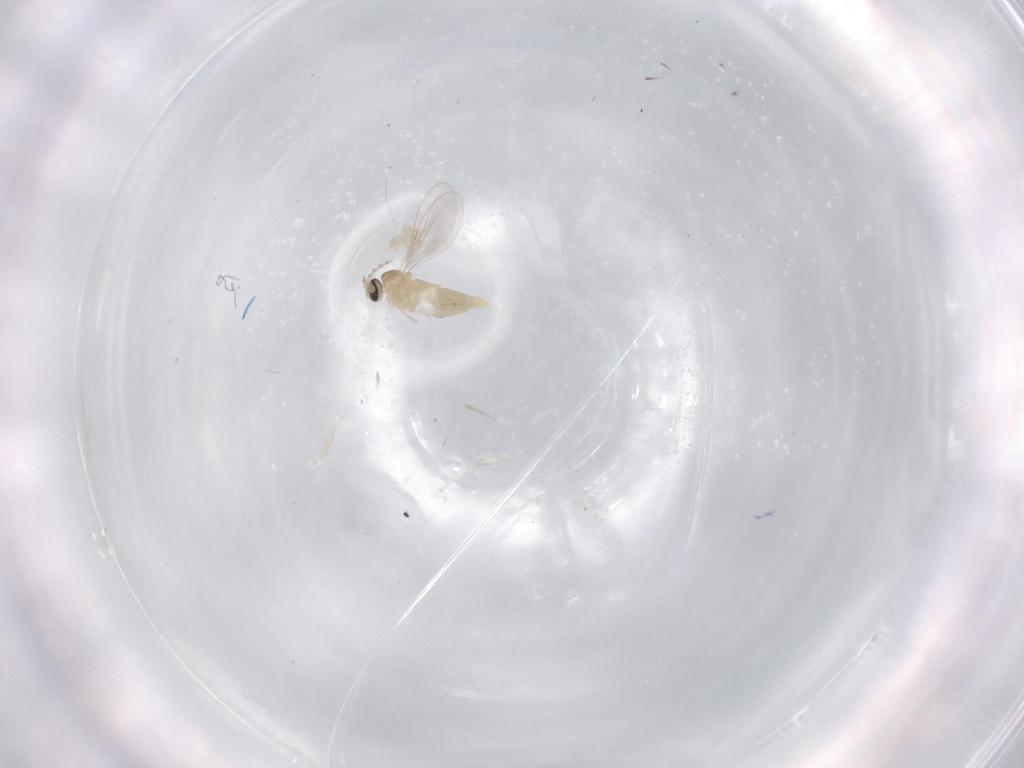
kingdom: Animalia
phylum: Arthropoda
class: Insecta
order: Diptera
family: Cecidomyiidae
